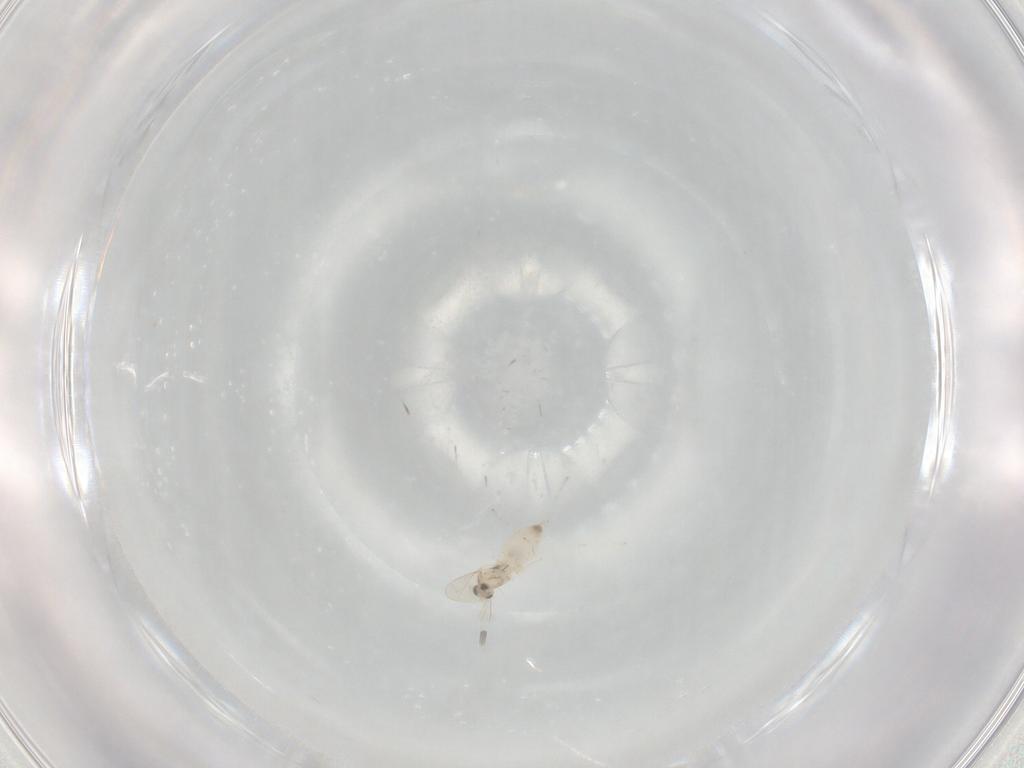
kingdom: Animalia
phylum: Arthropoda
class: Insecta
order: Diptera
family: Cecidomyiidae
